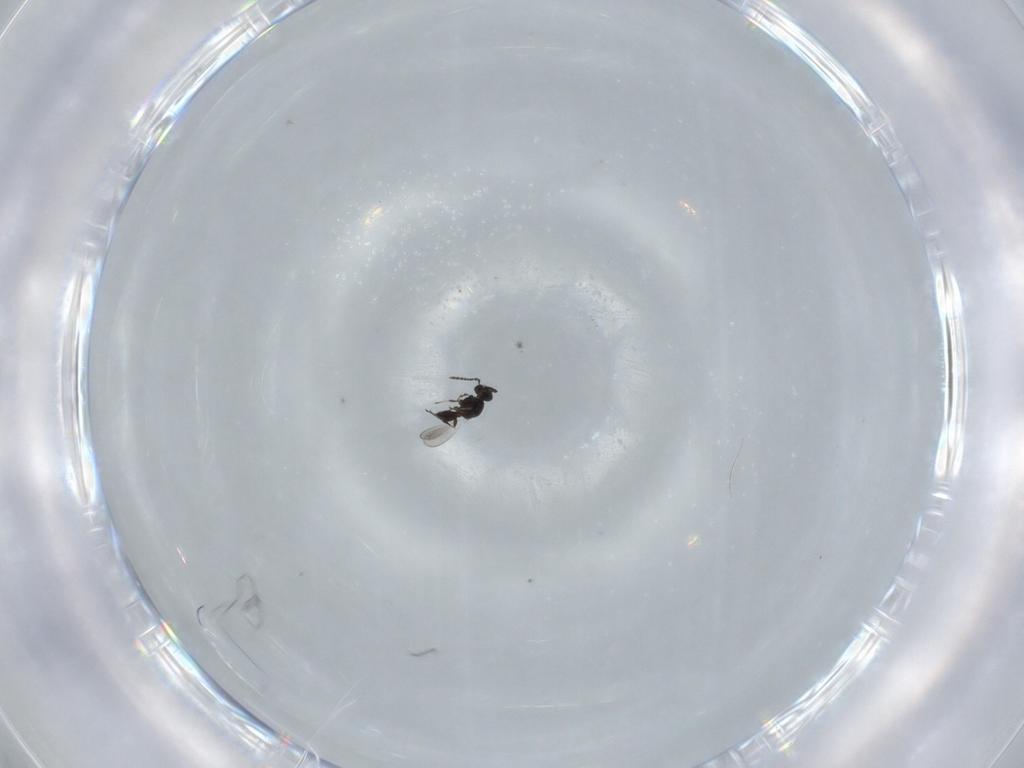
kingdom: Animalia
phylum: Arthropoda
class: Insecta
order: Hymenoptera
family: Platygastridae
